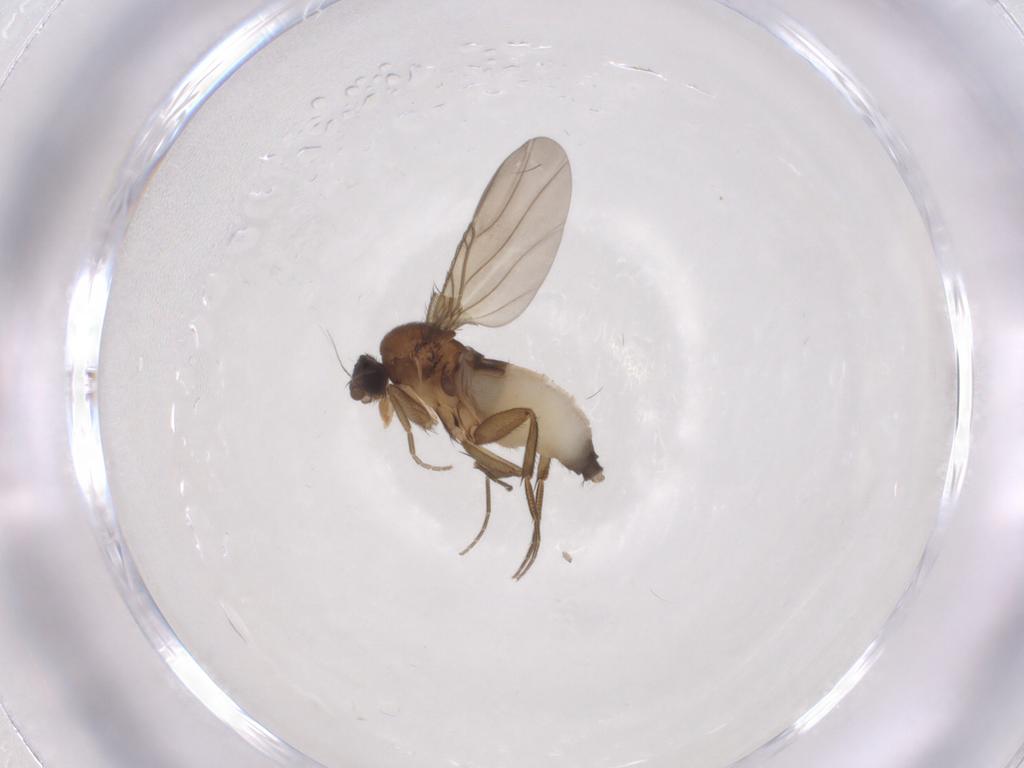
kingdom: Animalia
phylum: Arthropoda
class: Insecta
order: Diptera
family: Phoridae
